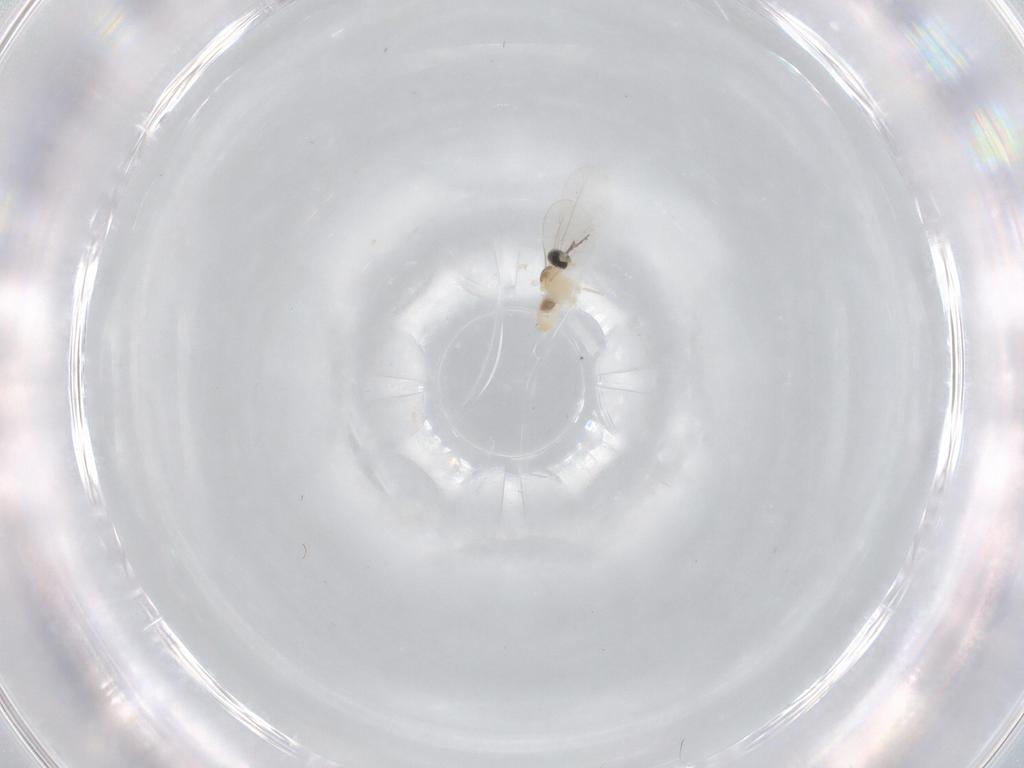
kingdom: Animalia
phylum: Arthropoda
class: Insecta
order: Diptera
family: Cecidomyiidae
